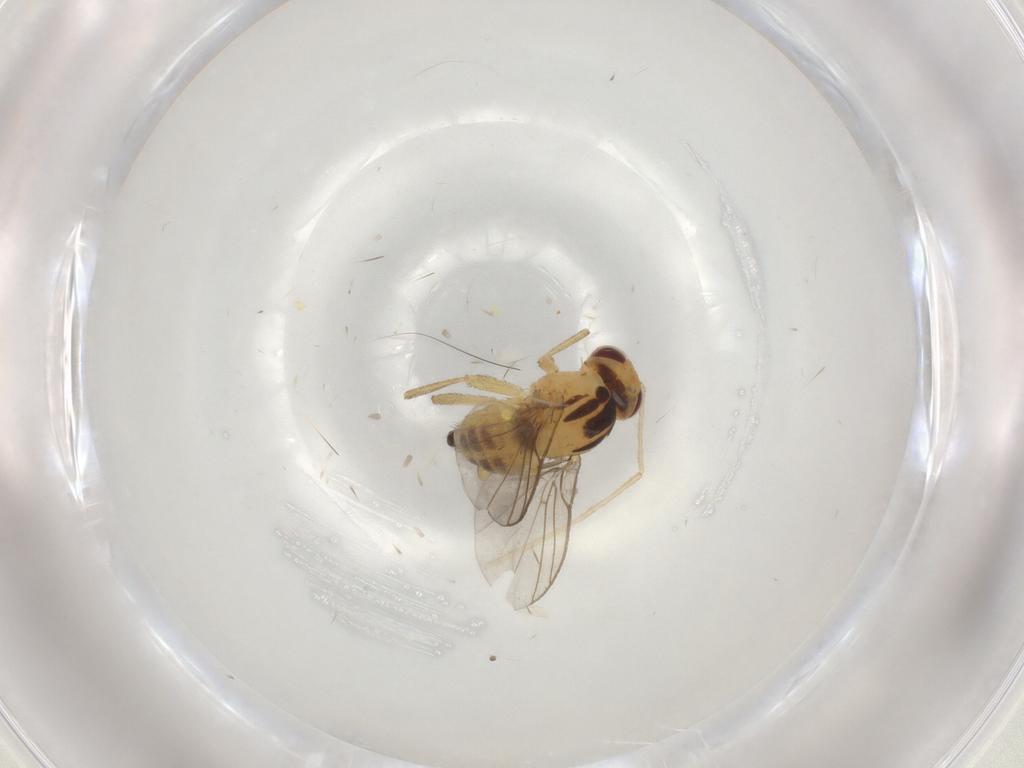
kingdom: Animalia
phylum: Arthropoda
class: Insecta
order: Diptera
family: Agromyzidae
